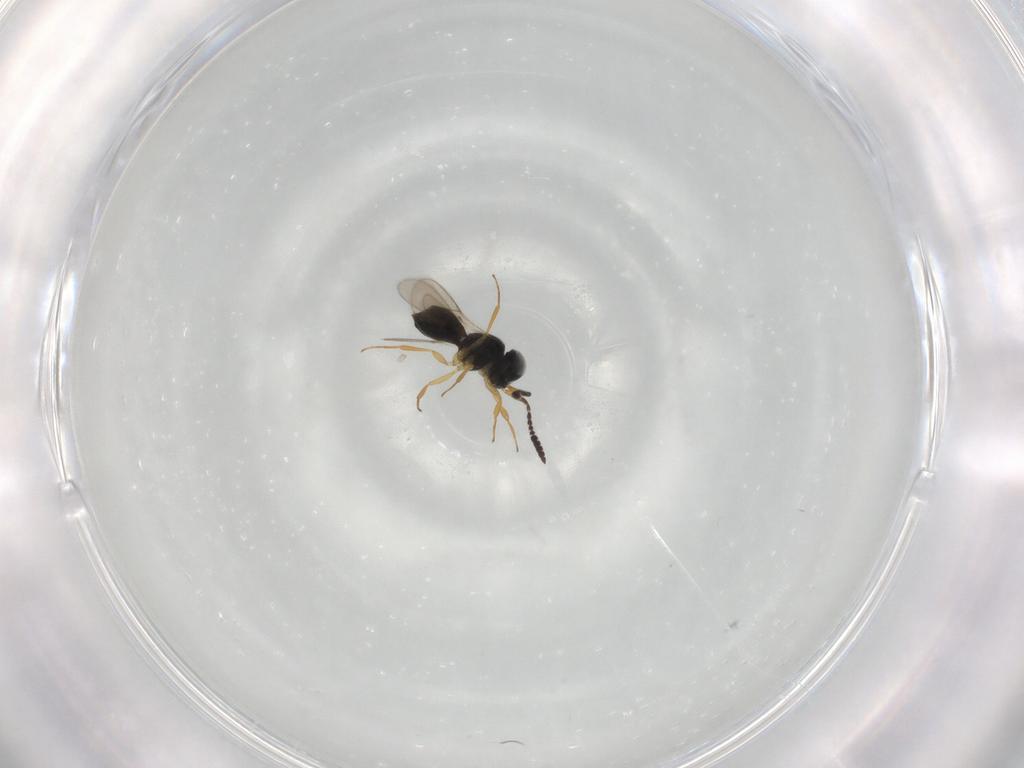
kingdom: Animalia
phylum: Arthropoda
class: Insecta
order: Hymenoptera
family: Scelionidae
